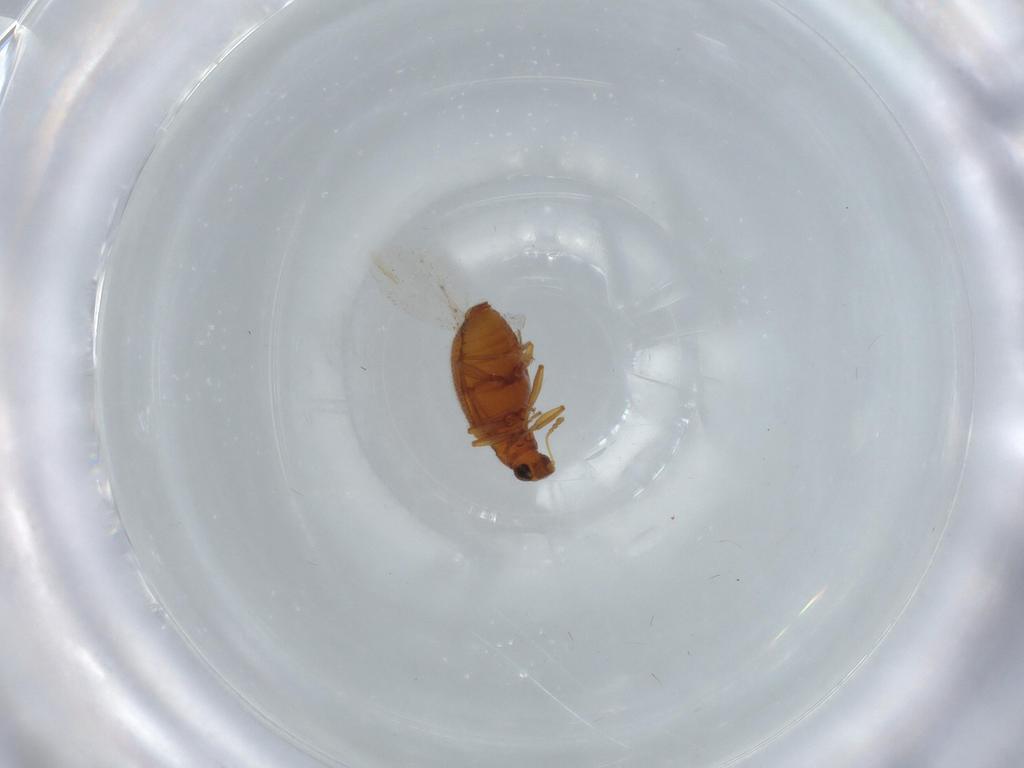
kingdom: Animalia
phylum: Arthropoda
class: Insecta
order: Coleoptera
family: Latridiidae
